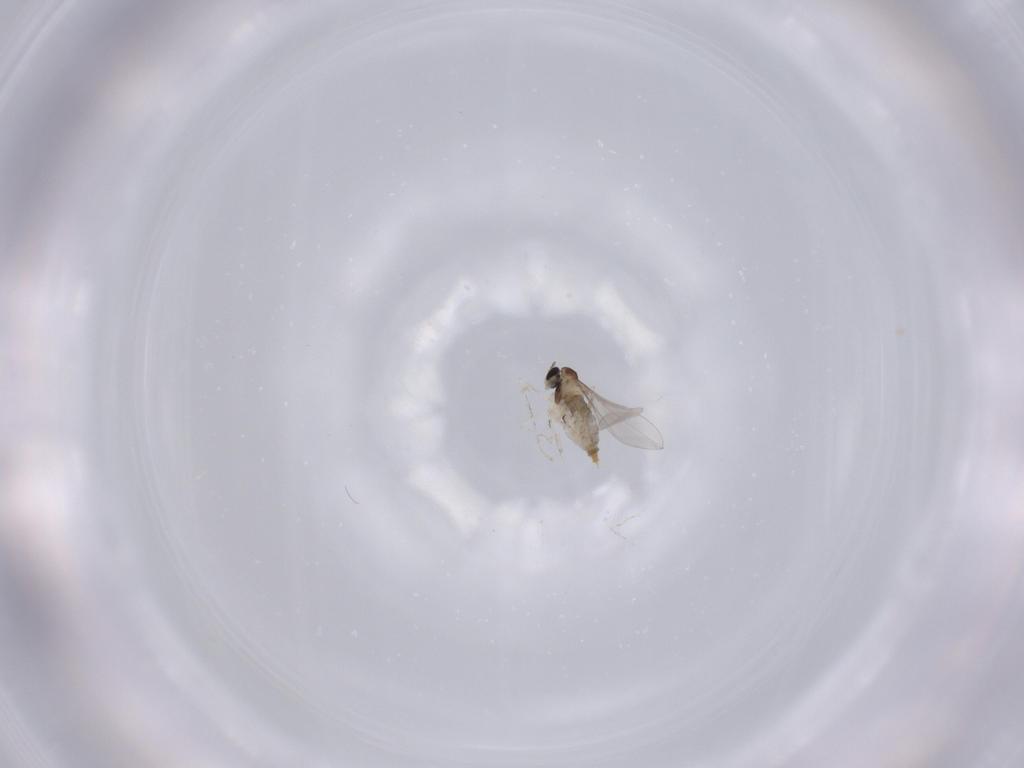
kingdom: Animalia
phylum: Arthropoda
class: Insecta
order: Diptera
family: Cecidomyiidae
